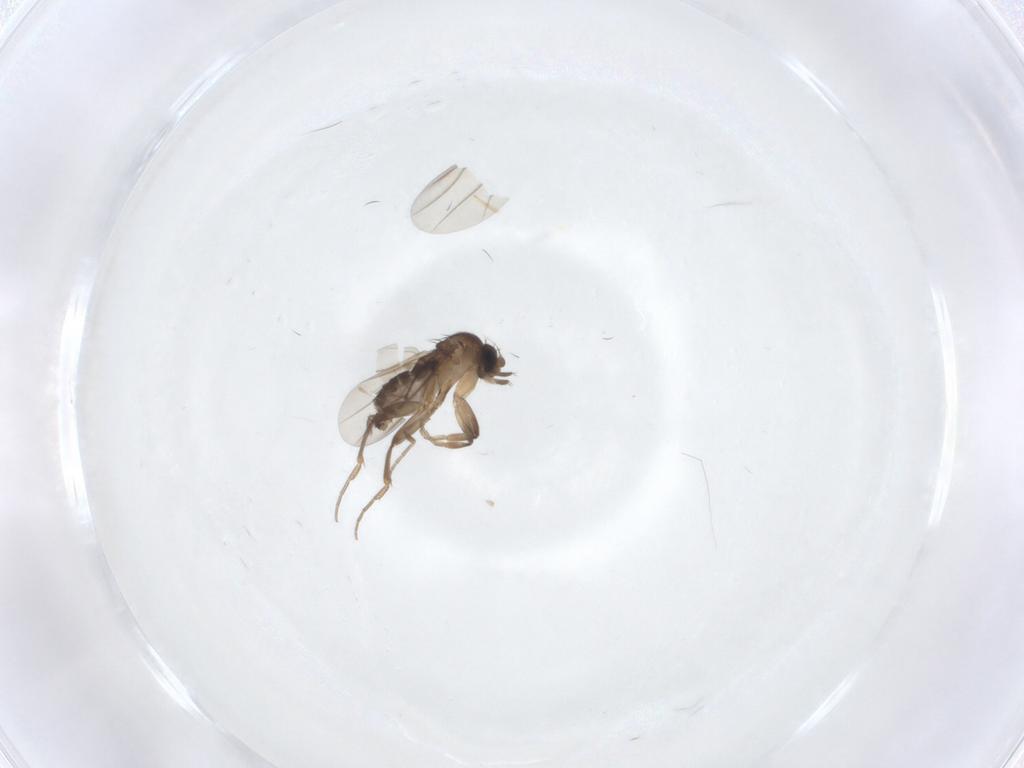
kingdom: Animalia
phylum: Arthropoda
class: Insecta
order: Diptera
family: Phoridae
